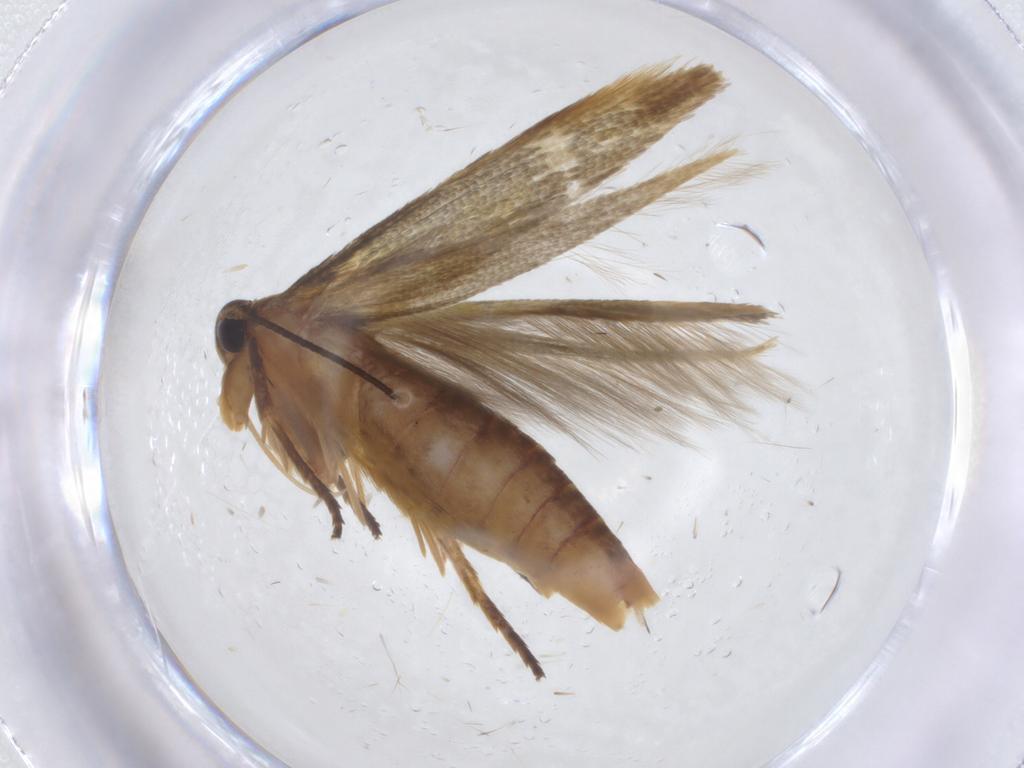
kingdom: Animalia
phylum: Arthropoda
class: Insecta
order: Lepidoptera
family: Stathmopodidae
